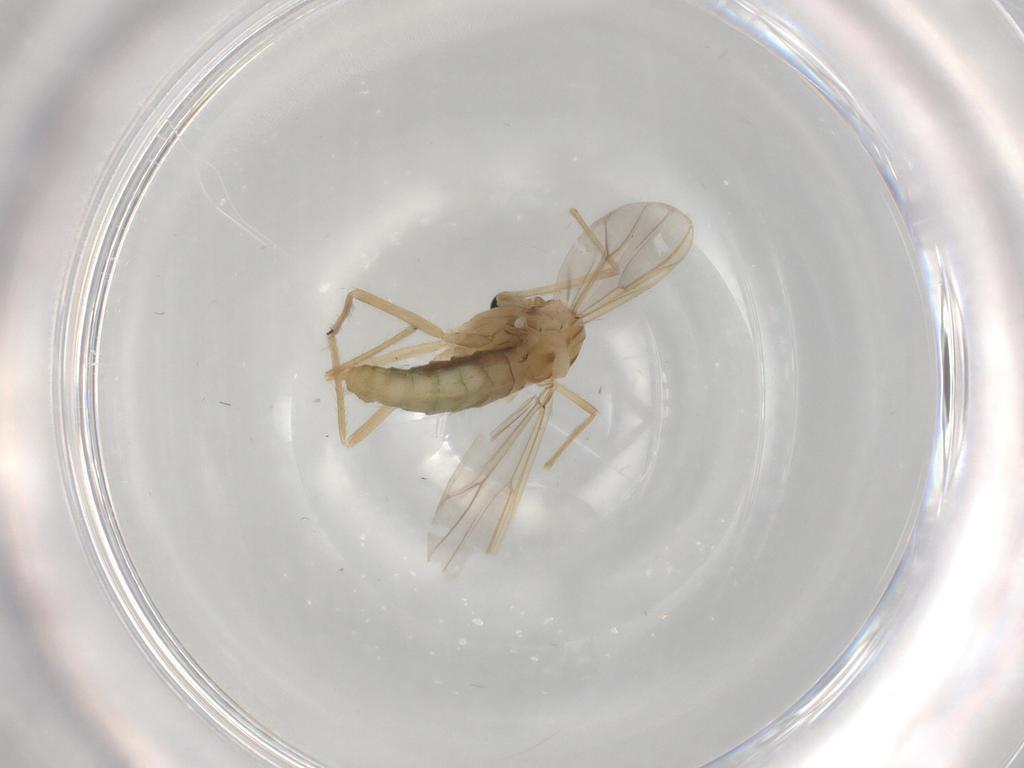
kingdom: Animalia
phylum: Arthropoda
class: Insecta
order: Diptera
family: Chironomidae
